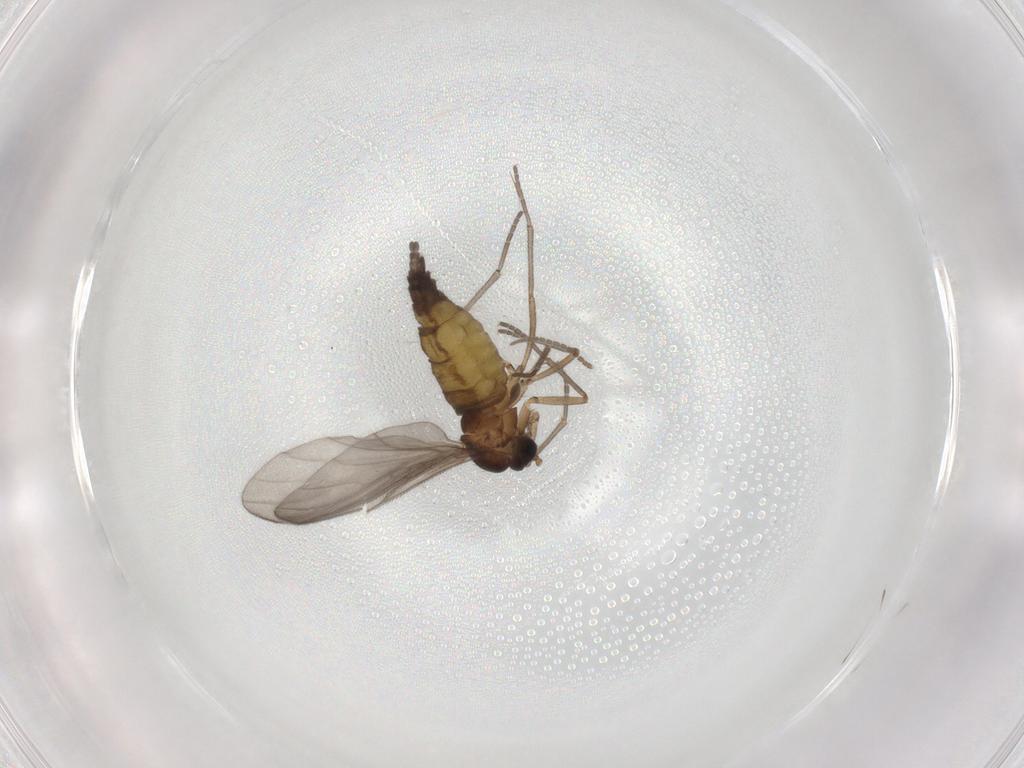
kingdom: Animalia
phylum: Arthropoda
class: Insecta
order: Diptera
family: Sciaridae
